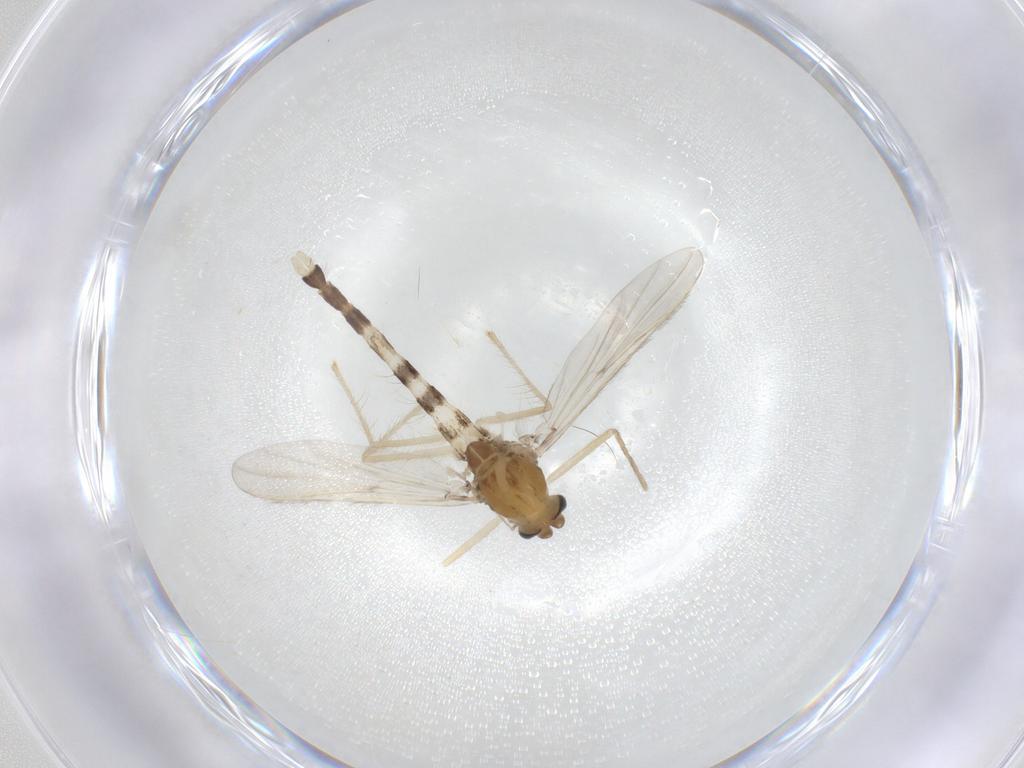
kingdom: Animalia
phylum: Arthropoda
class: Insecta
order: Diptera
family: Chironomidae
